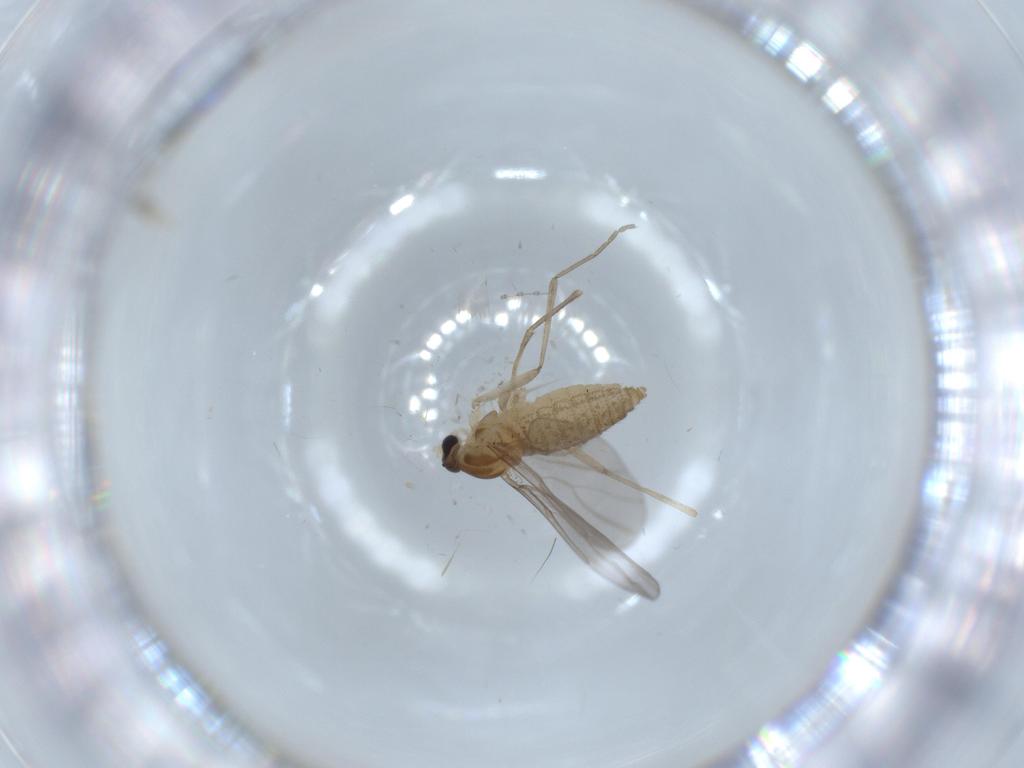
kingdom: Animalia
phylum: Arthropoda
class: Insecta
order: Diptera
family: Cecidomyiidae
